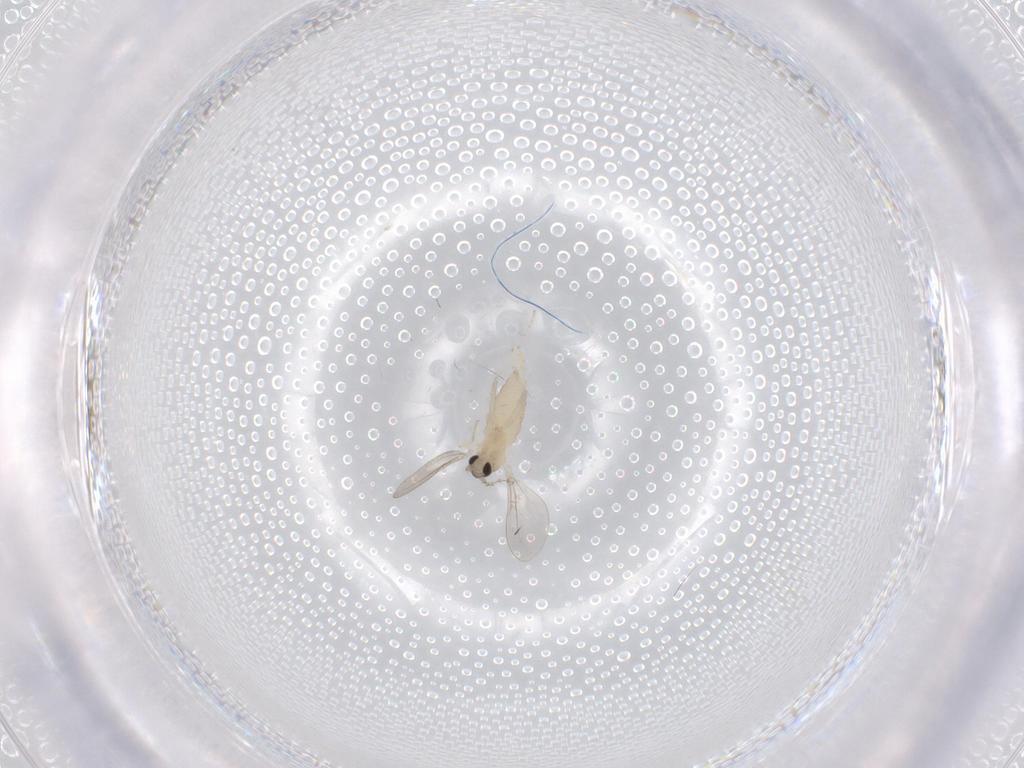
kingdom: Animalia
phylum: Arthropoda
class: Insecta
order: Diptera
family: Cecidomyiidae
